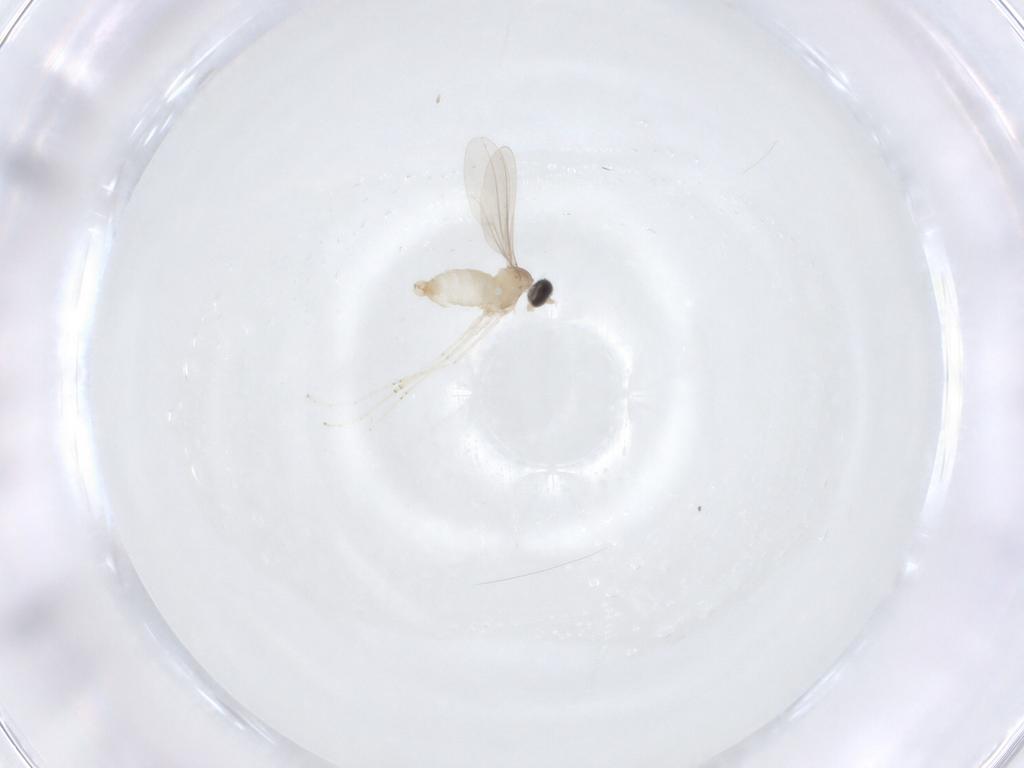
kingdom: Animalia
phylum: Arthropoda
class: Insecta
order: Diptera
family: Cecidomyiidae
